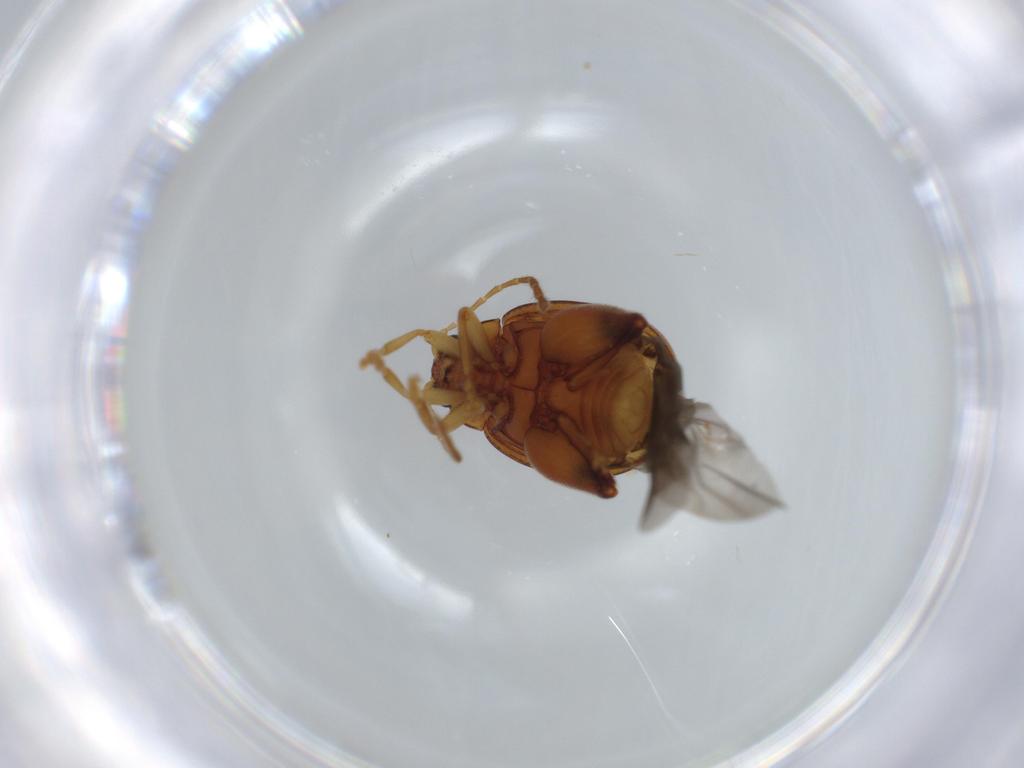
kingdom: Animalia
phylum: Arthropoda
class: Insecta
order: Coleoptera
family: Chrysomelidae
